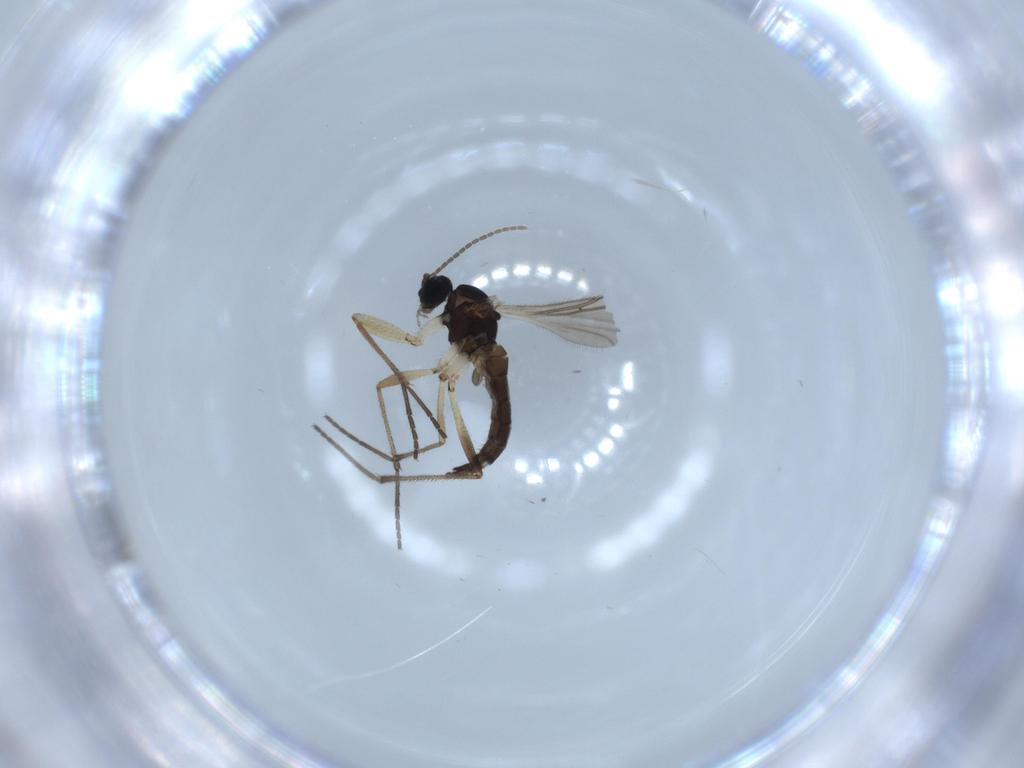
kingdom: Animalia
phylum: Arthropoda
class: Insecta
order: Diptera
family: Sciaridae
